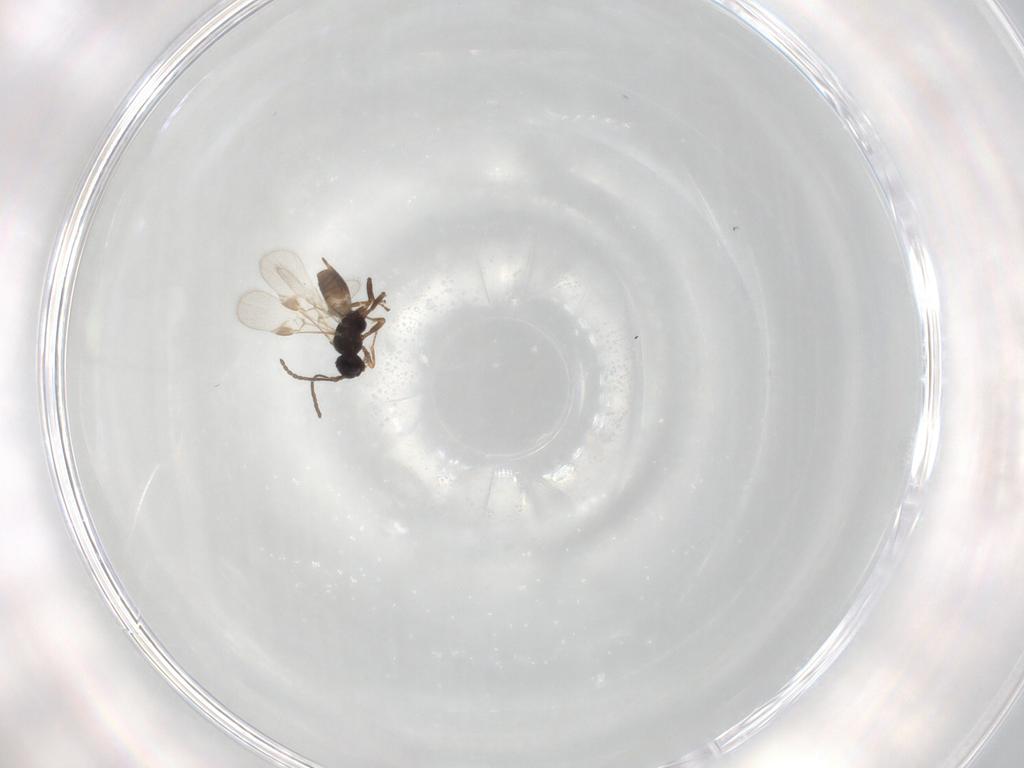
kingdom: Animalia
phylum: Arthropoda
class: Insecta
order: Hymenoptera
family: Braconidae
